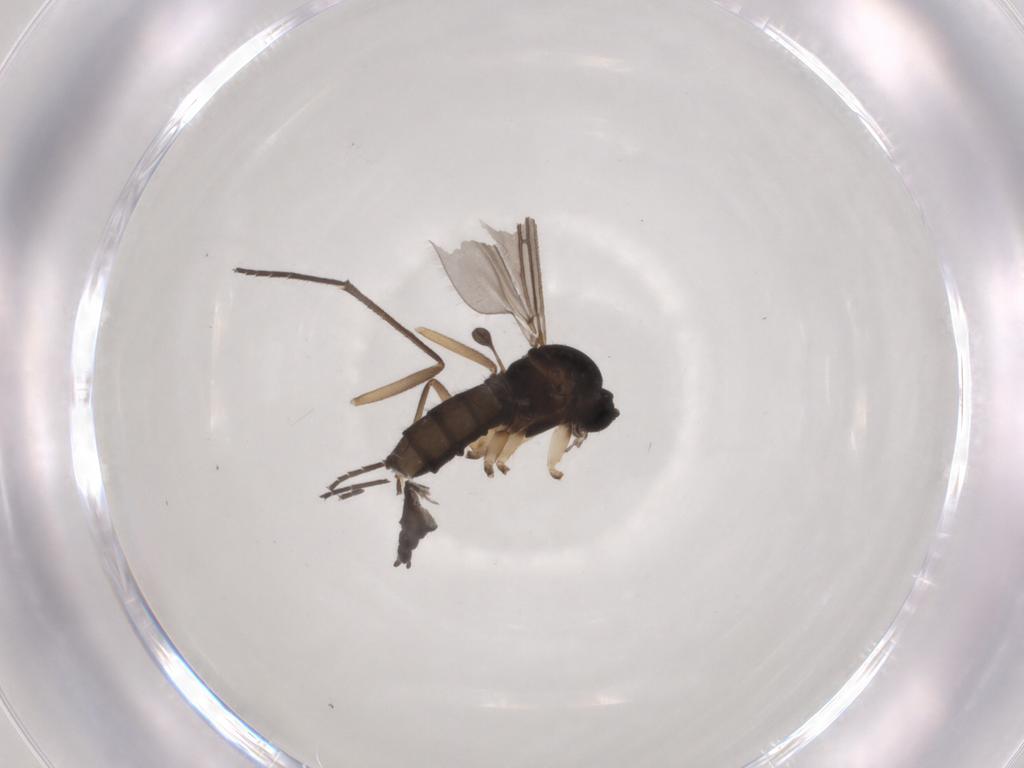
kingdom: Animalia
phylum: Arthropoda
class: Insecta
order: Diptera
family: Sciaridae
